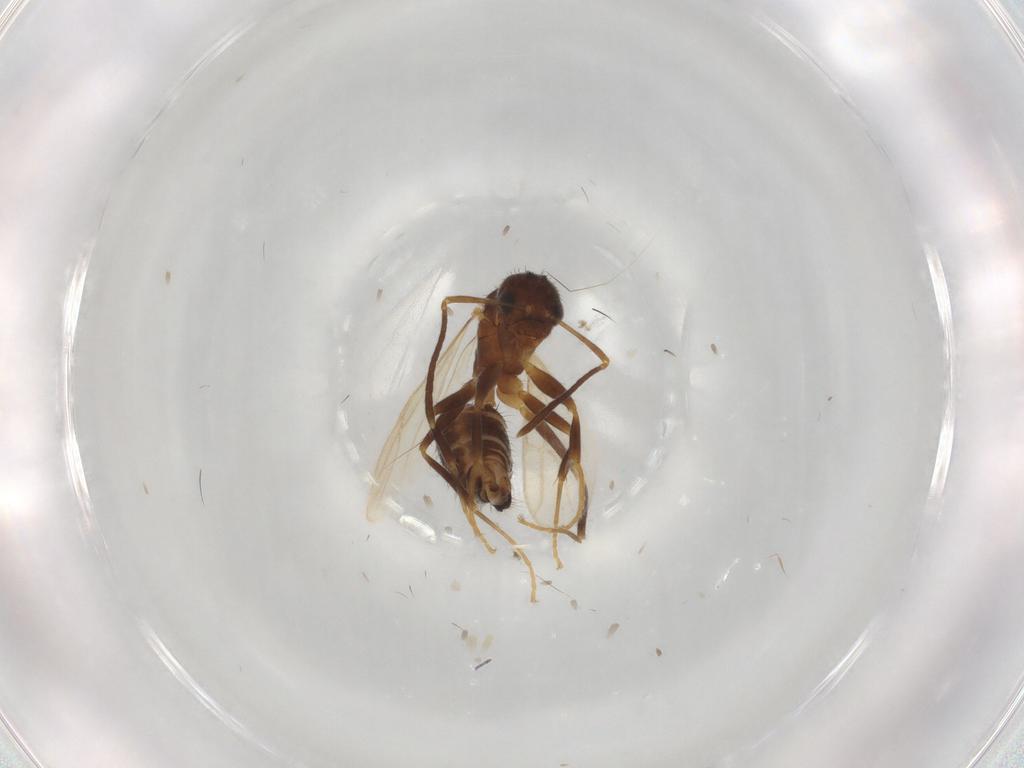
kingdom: Animalia
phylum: Arthropoda
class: Insecta
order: Hymenoptera
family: Formicidae
